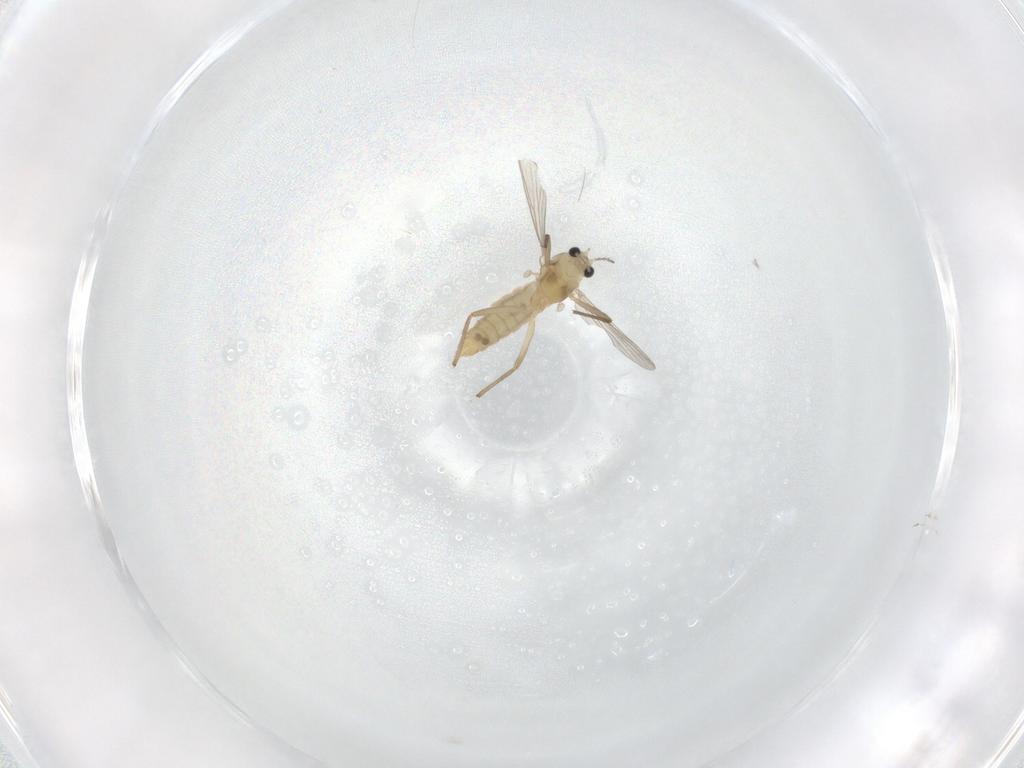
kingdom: Animalia
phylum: Arthropoda
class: Insecta
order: Diptera
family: Chironomidae
